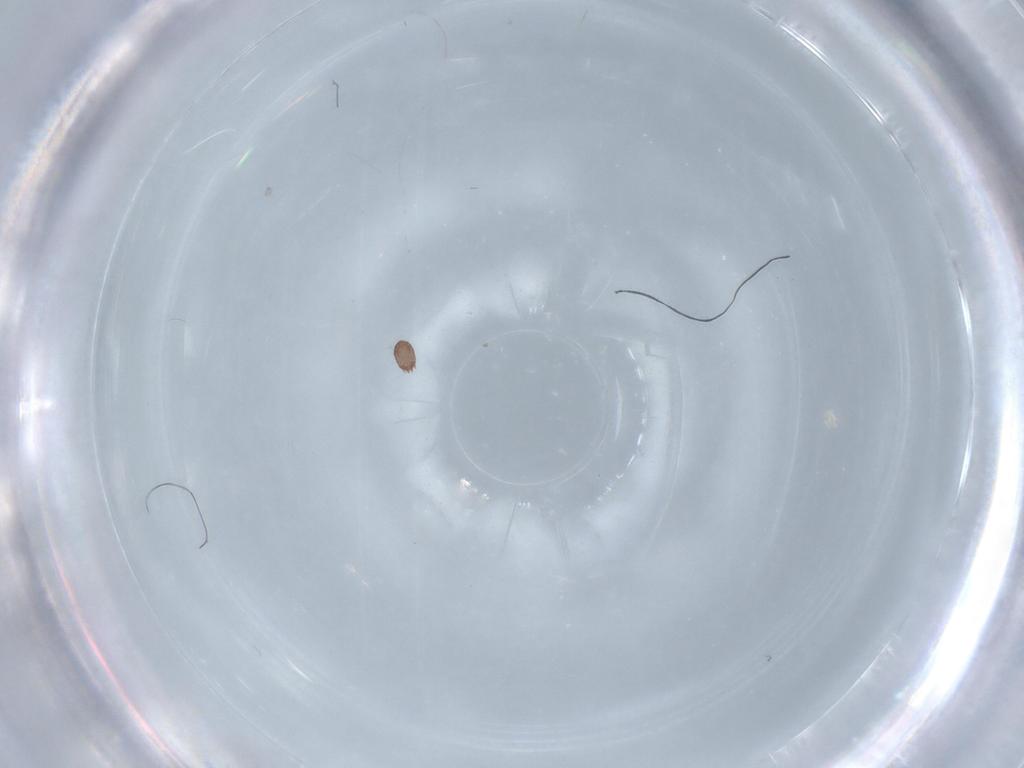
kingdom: Animalia
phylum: Arthropoda
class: Arachnida
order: Mesostigmata
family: Melicharidae
